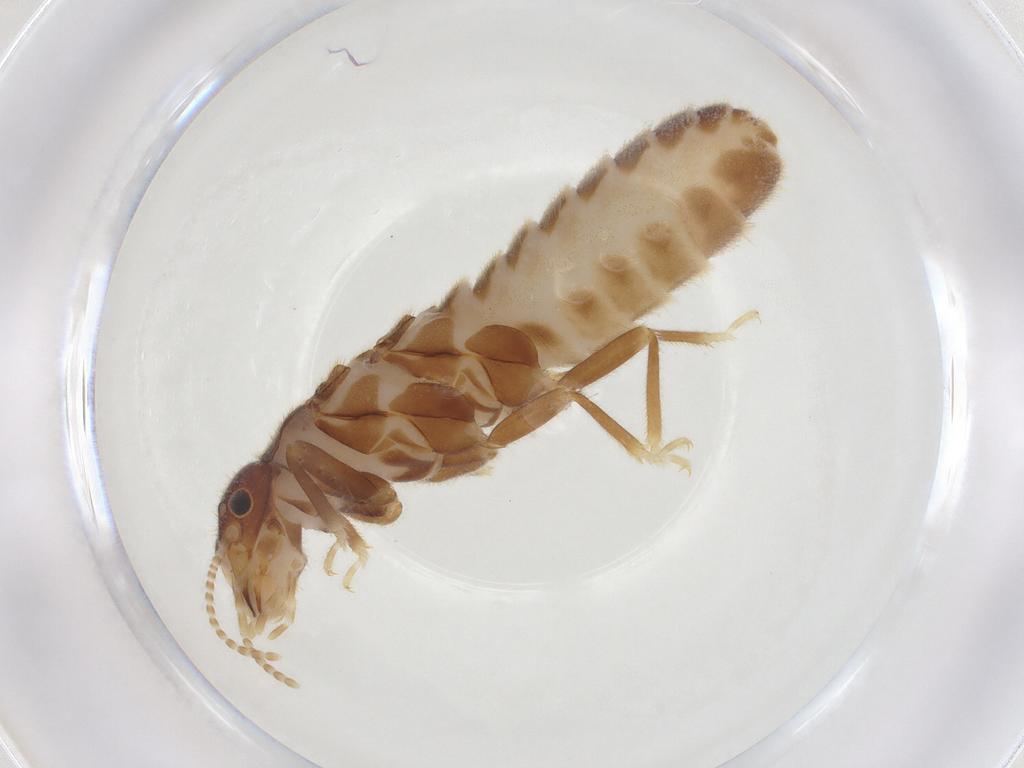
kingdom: Animalia
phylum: Arthropoda
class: Insecta
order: Blattodea
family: Termitidae
